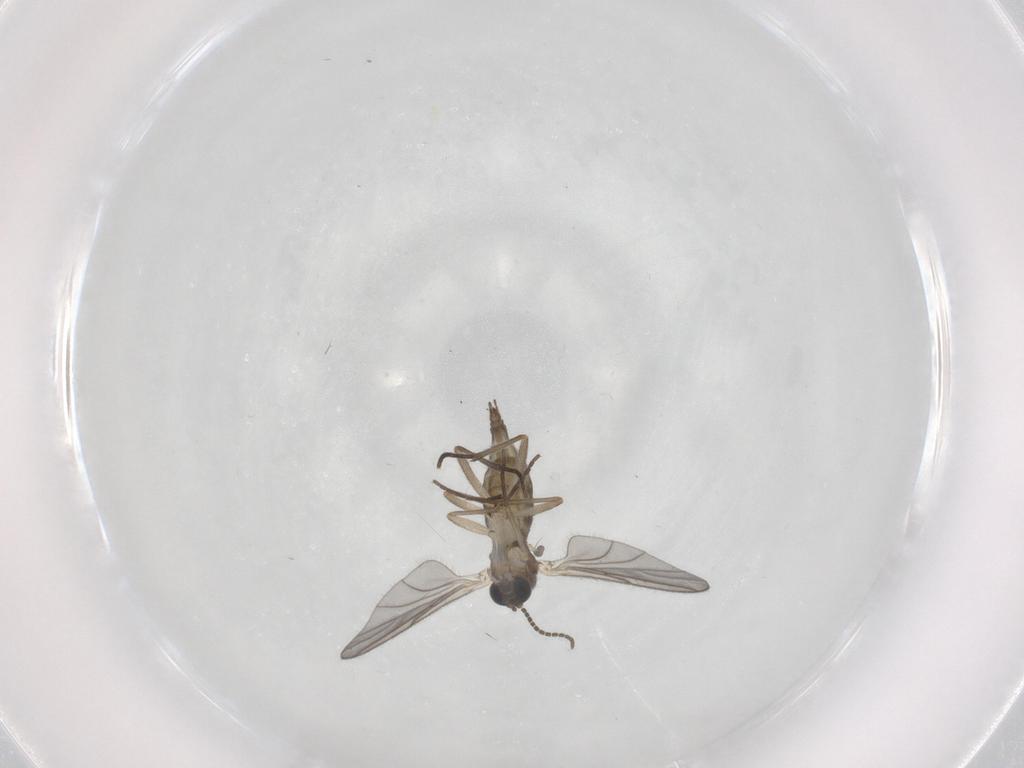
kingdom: Animalia
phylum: Arthropoda
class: Insecta
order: Diptera
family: Sciaridae
